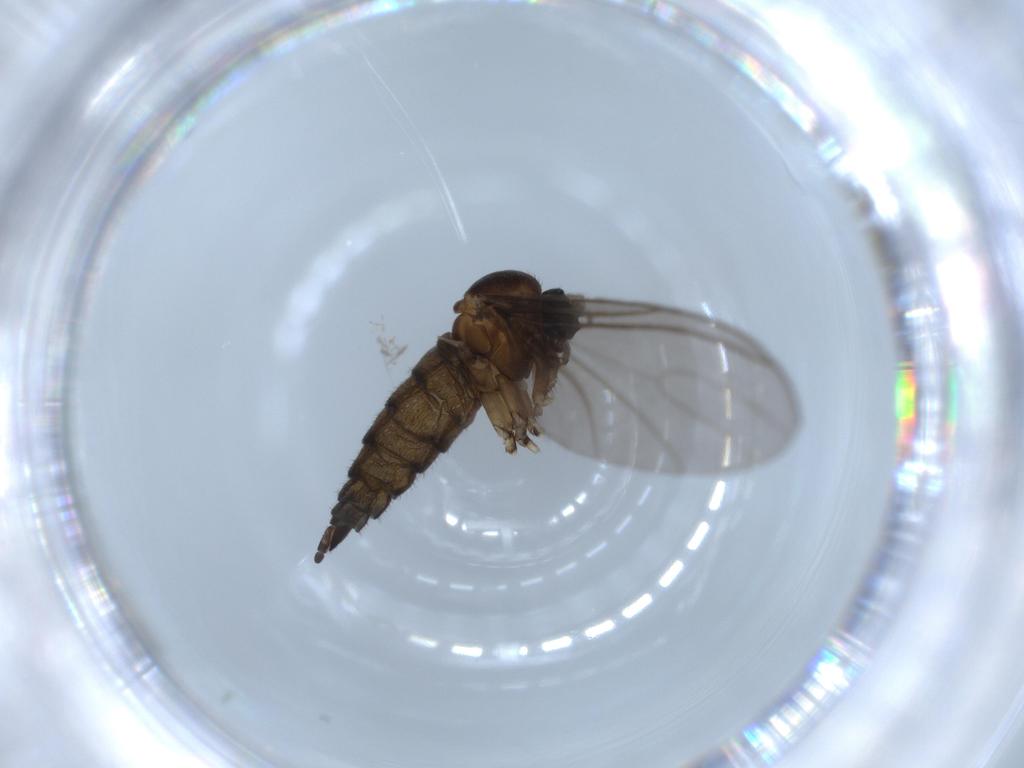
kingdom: Animalia
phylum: Arthropoda
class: Insecta
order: Diptera
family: Sciaridae
